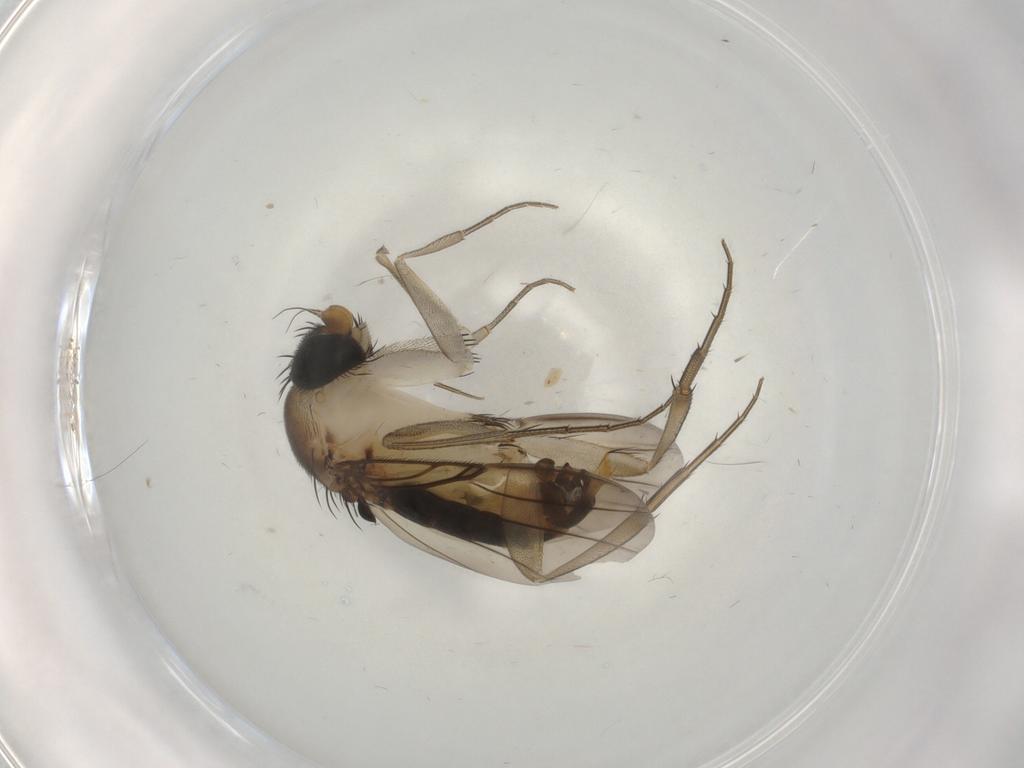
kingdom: Animalia
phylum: Arthropoda
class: Insecta
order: Diptera
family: Phoridae
